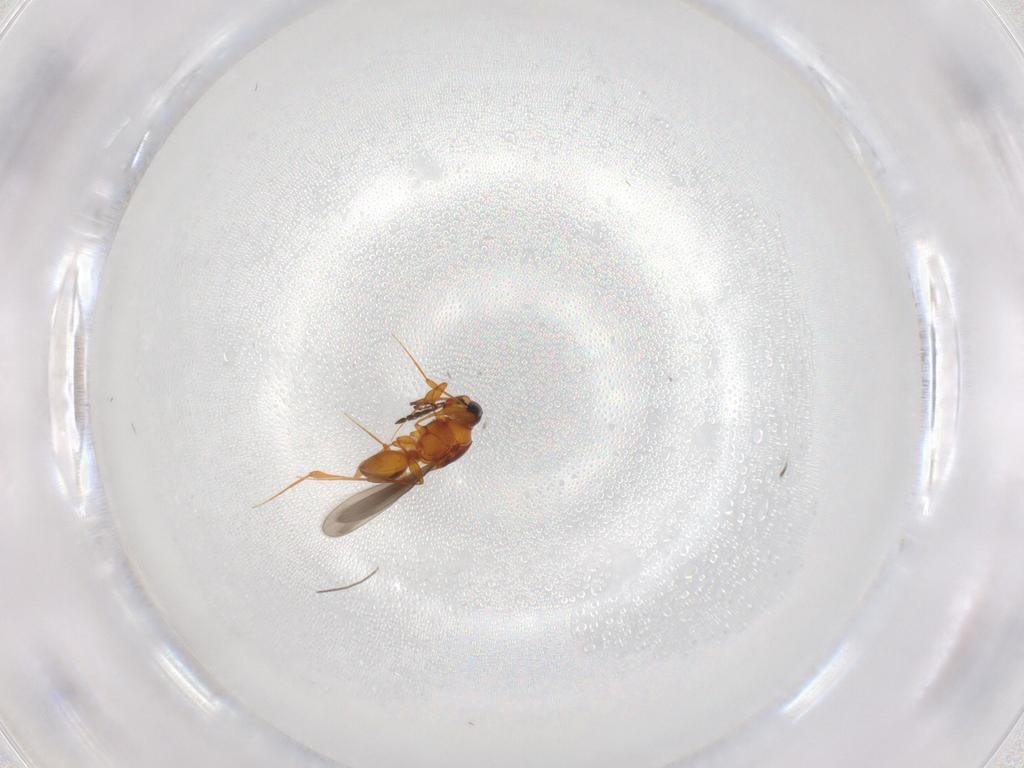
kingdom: Animalia
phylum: Arthropoda
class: Insecta
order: Hymenoptera
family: Platygastridae
